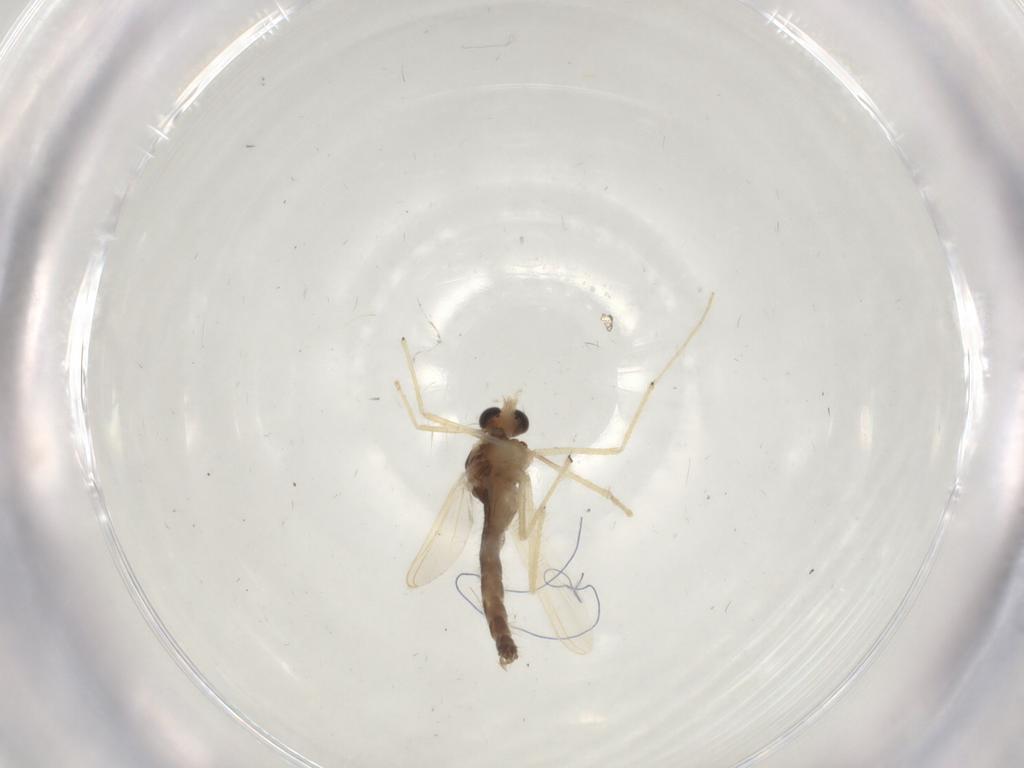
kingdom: Animalia
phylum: Arthropoda
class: Insecta
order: Diptera
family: Chironomidae
